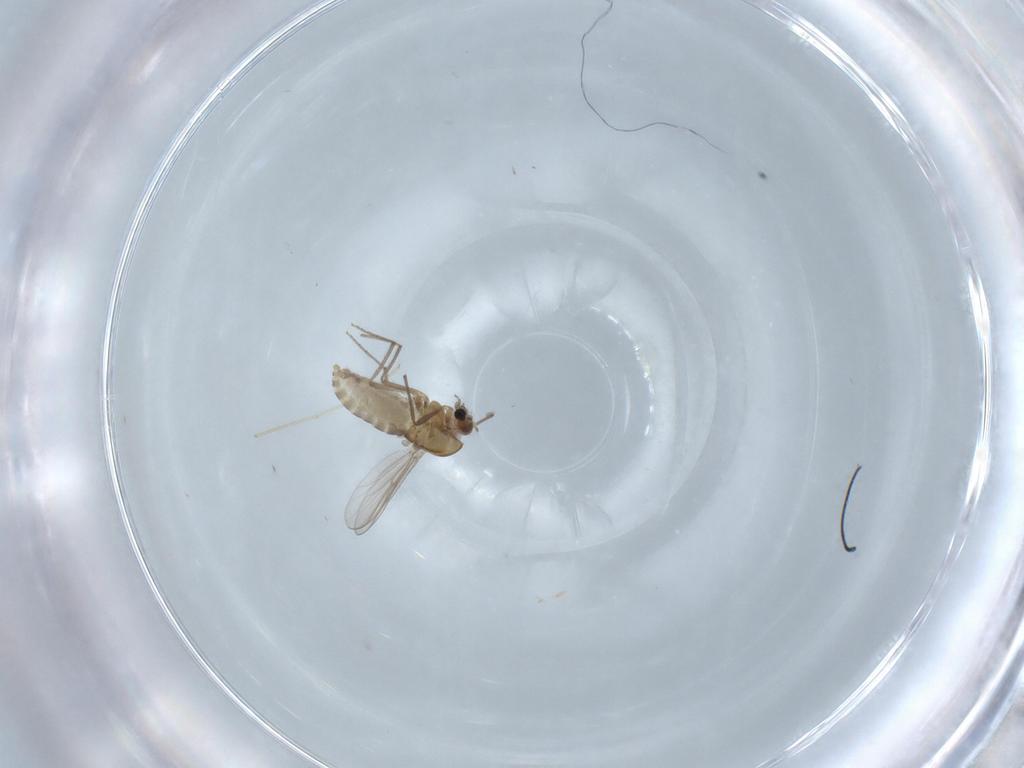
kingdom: Animalia
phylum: Arthropoda
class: Insecta
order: Diptera
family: Chironomidae
